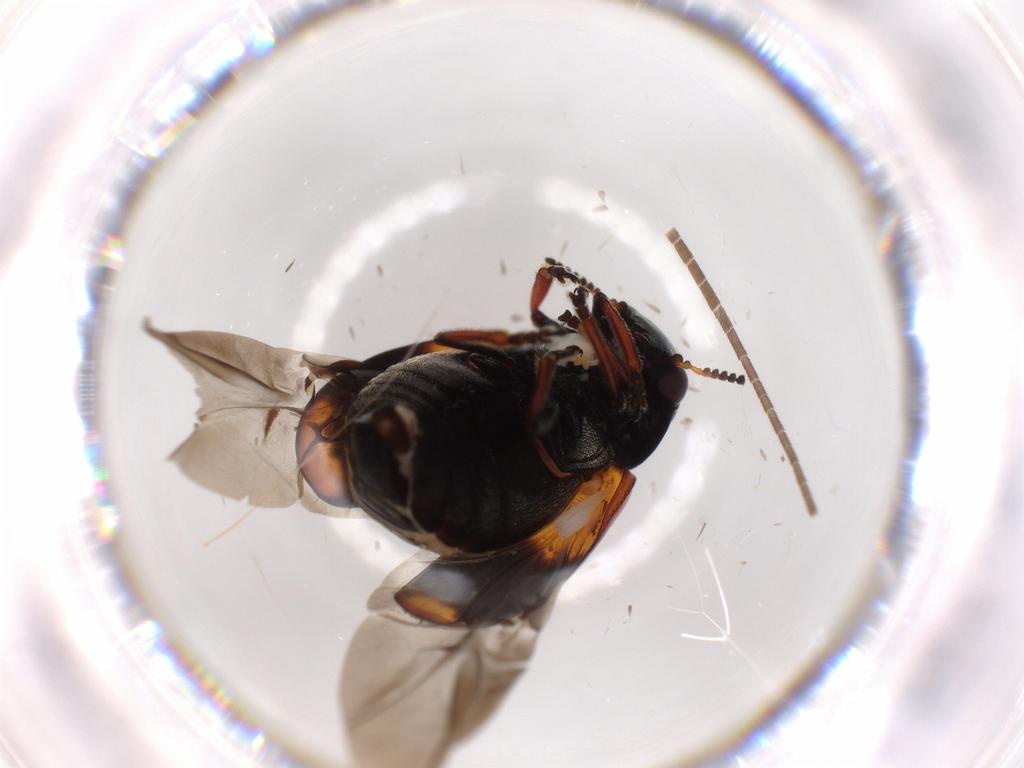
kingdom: Animalia
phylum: Arthropoda
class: Insecta
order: Coleoptera
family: Chrysomelidae
